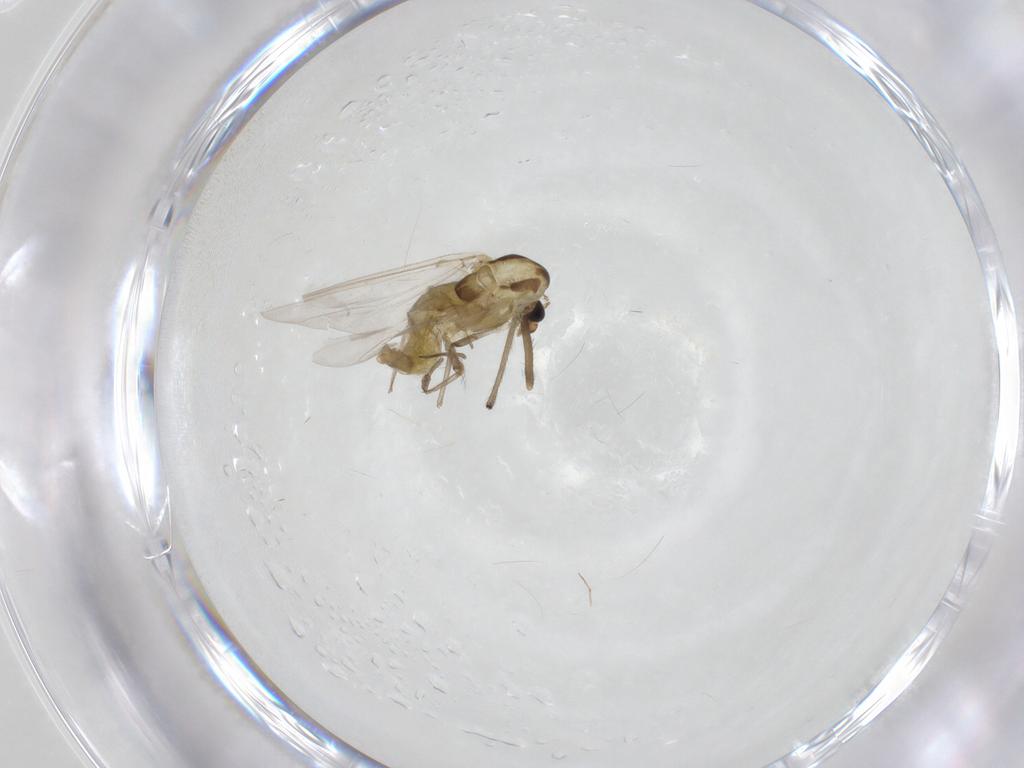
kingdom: Animalia
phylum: Arthropoda
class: Insecta
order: Diptera
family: Chironomidae
